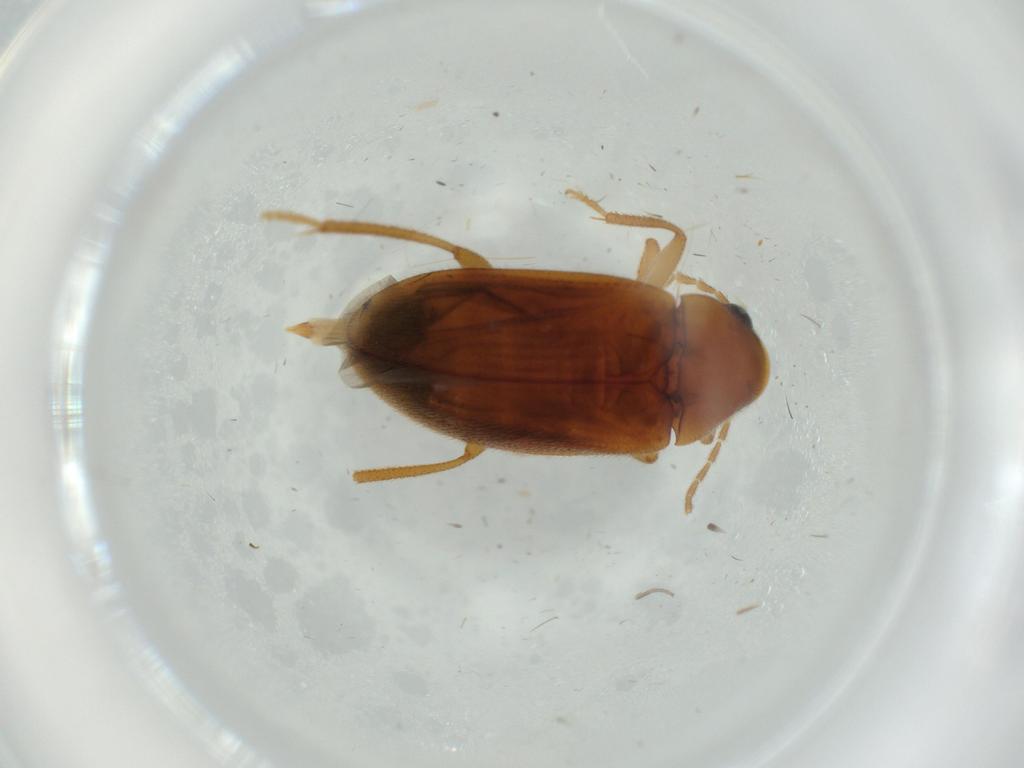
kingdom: Animalia
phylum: Arthropoda
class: Insecta
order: Coleoptera
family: Ptilodactylidae
